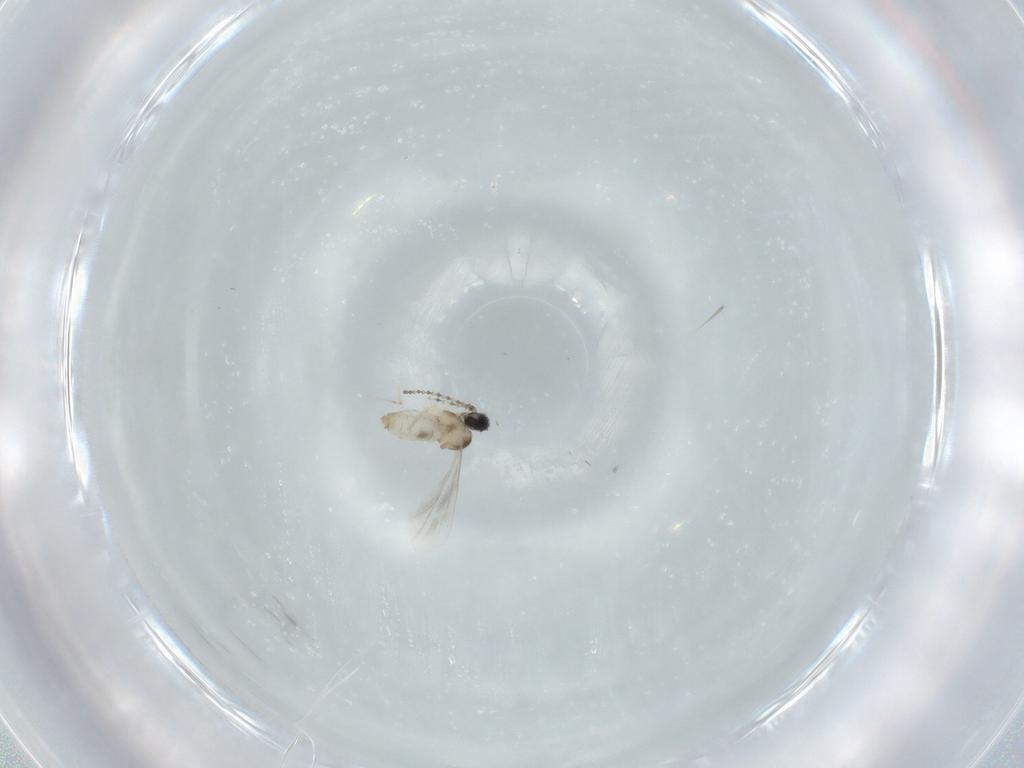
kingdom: Animalia
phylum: Arthropoda
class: Insecta
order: Diptera
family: Cecidomyiidae
